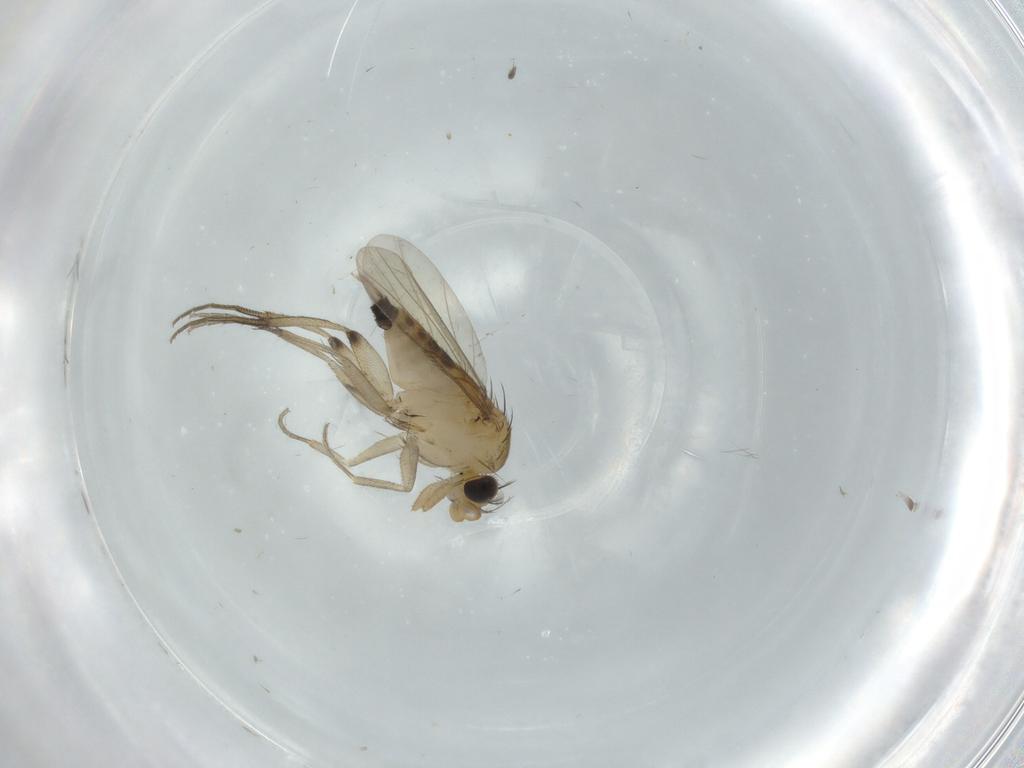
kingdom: Animalia
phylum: Arthropoda
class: Insecta
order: Diptera
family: Phoridae
